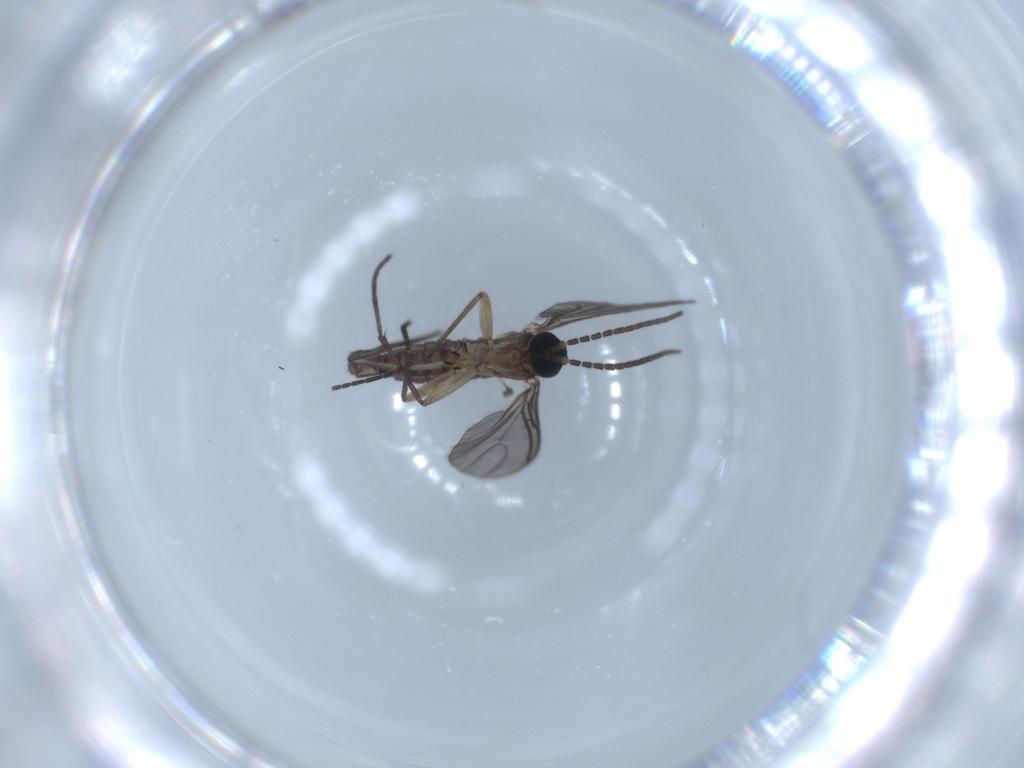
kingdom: Animalia
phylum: Arthropoda
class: Insecta
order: Diptera
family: Sciaridae
